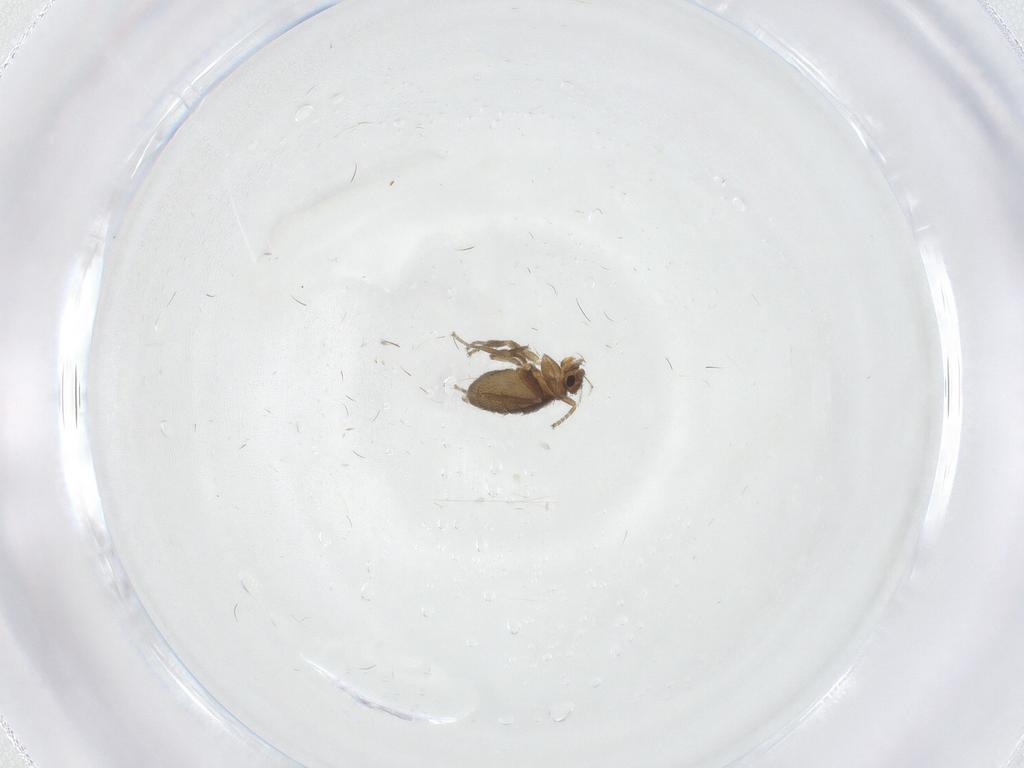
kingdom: Animalia
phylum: Arthropoda
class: Insecta
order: Diptera
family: Phoridae
